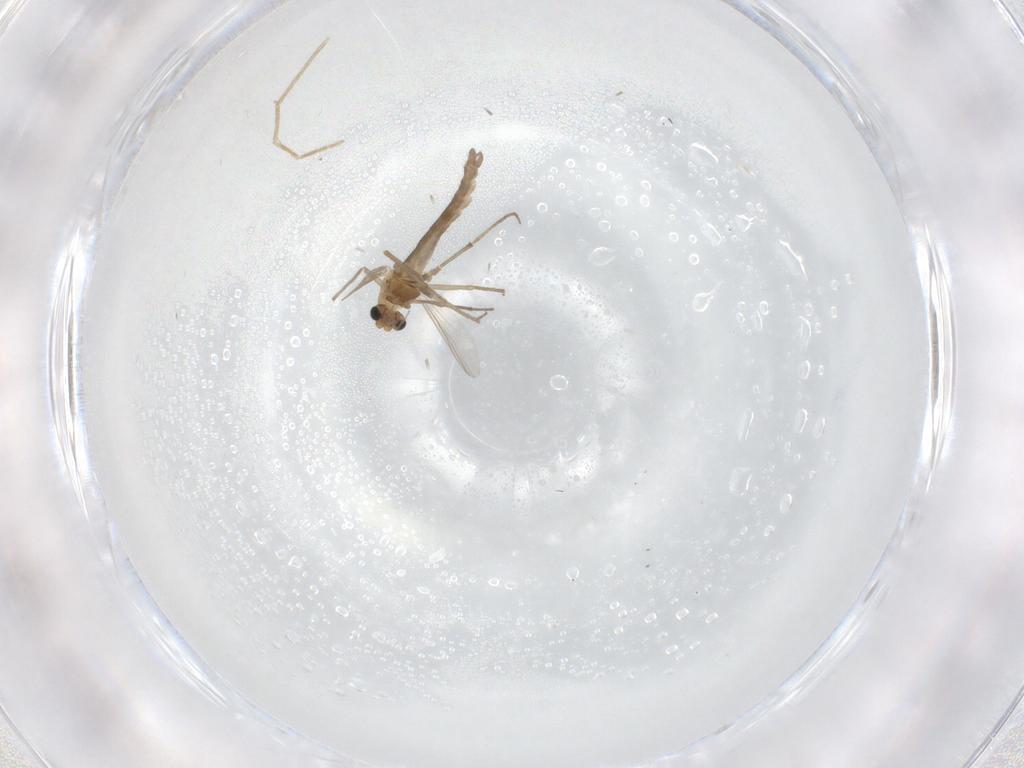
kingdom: Animalia
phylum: Arthropoda
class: Insecta
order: Diptera
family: Chironomidae
